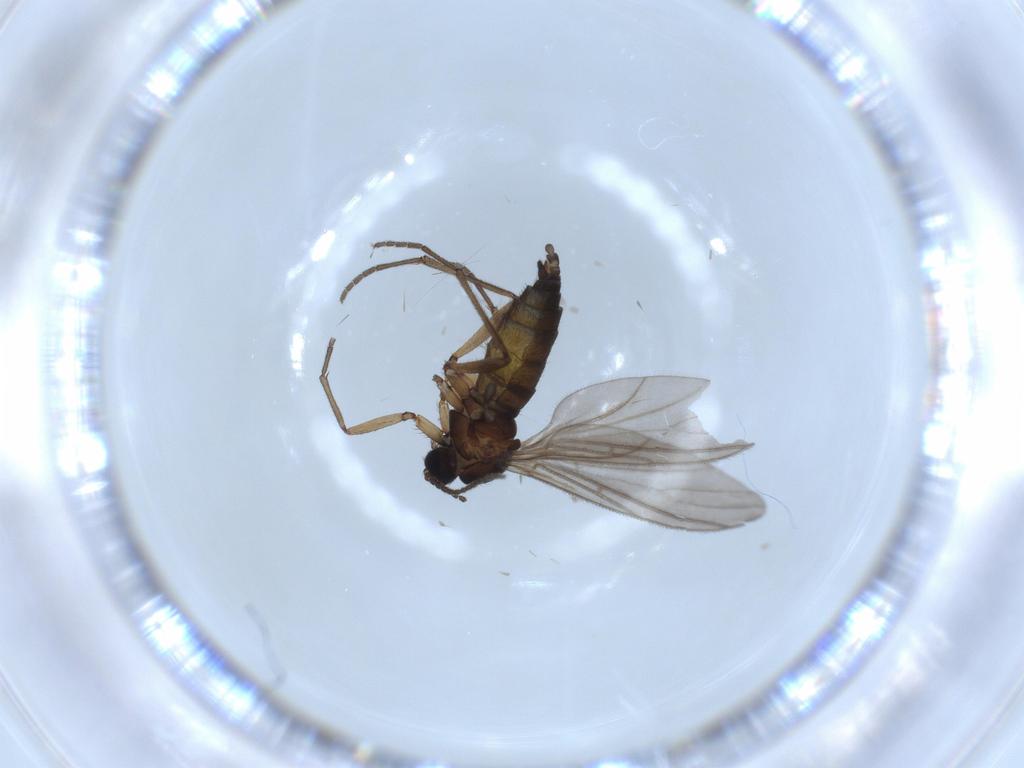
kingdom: Animalia
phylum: Arthropoda
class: Insecta
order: Diptera
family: Sciaridae
